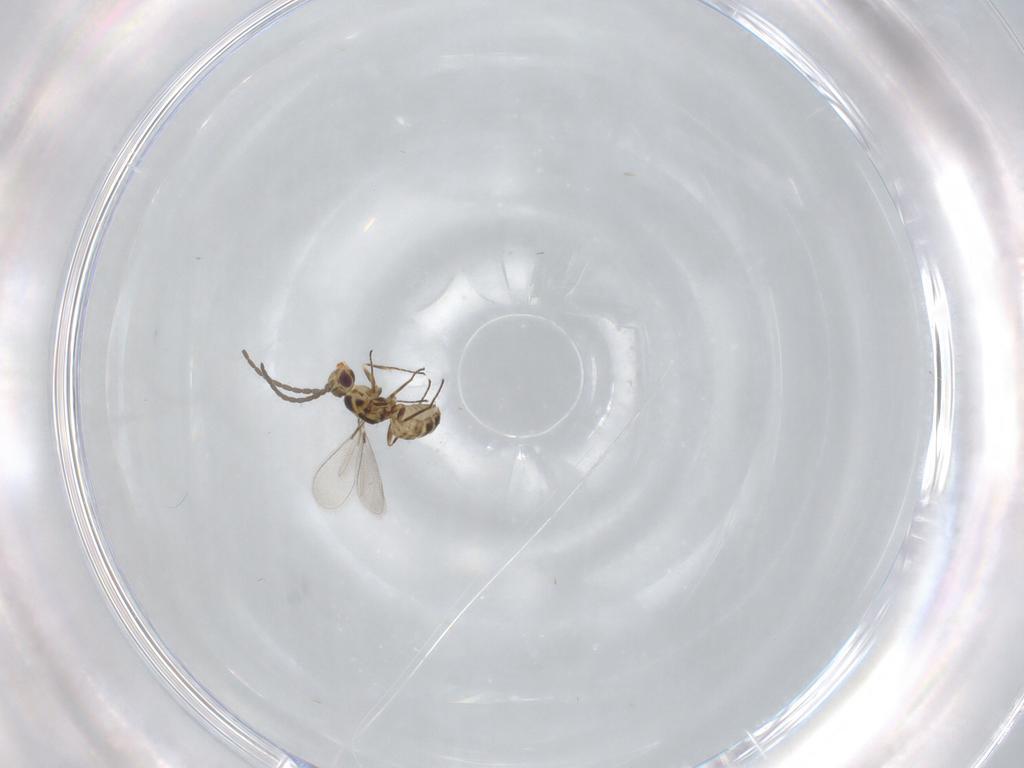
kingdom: Animalia
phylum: Arthropoda
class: Insecta
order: Hymenoptera
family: Mymaridae
